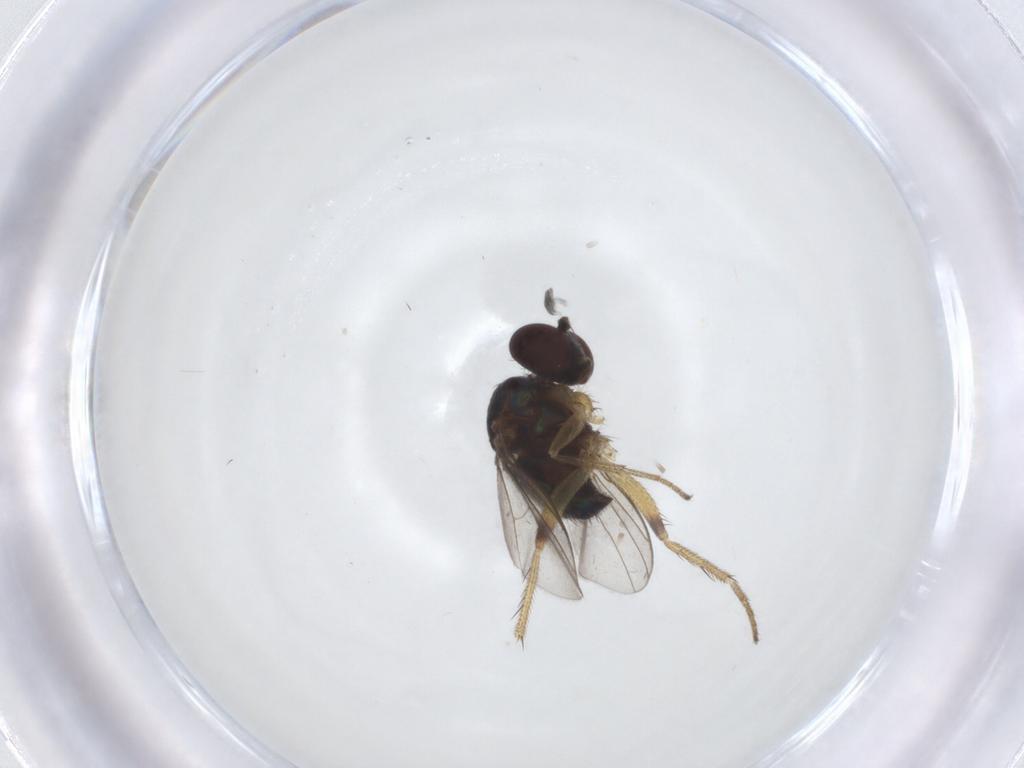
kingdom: Animalia
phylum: Arthropoda
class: Insecta
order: Diptera
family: Dolichopodidae
